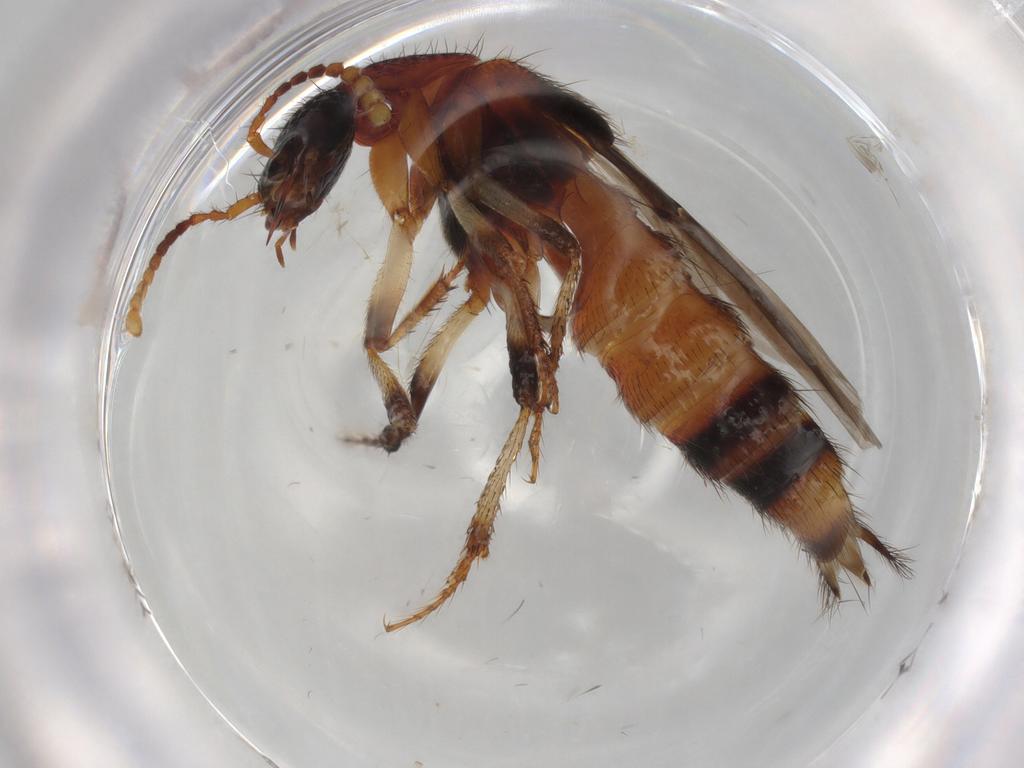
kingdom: Animalia
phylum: Arthropoda
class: Insecta
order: Coleoptera
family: Staphylinidae
